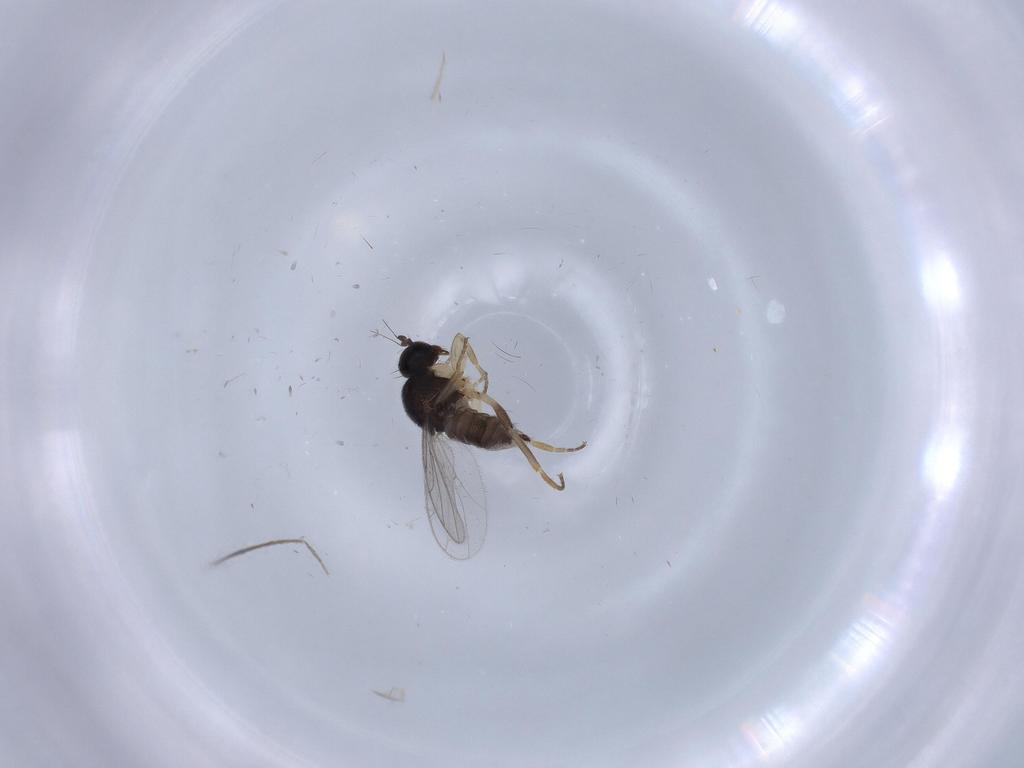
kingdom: Animalia
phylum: Arthropoda
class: Insecta
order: Diptera
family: Hybotidae
